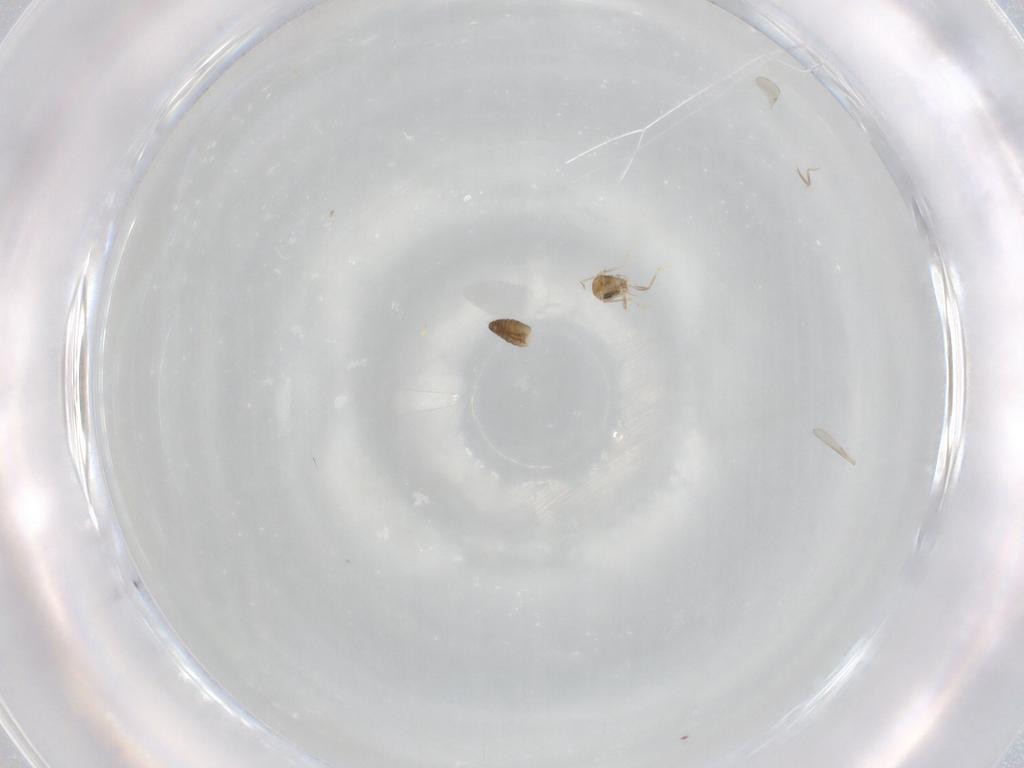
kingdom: Animalia
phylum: Arthropoda
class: Insecta
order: Diptera
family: Ceratopogonidae
